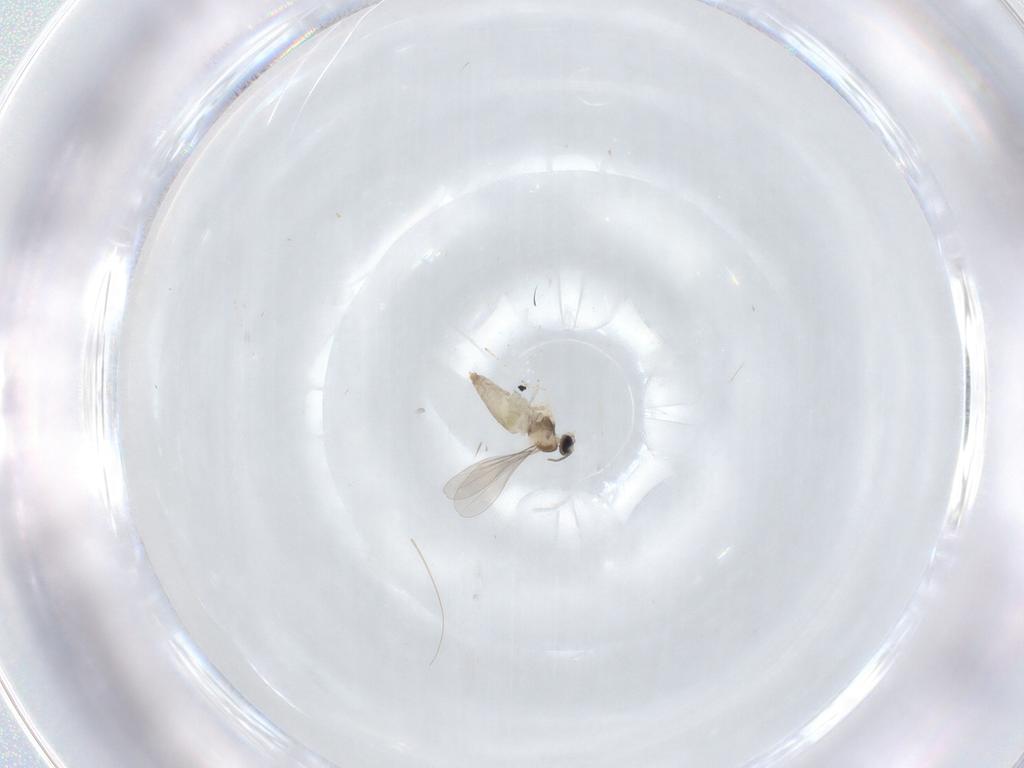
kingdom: Animalia
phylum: Arthropoda
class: Insecta
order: Diptera
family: Psychodidae
